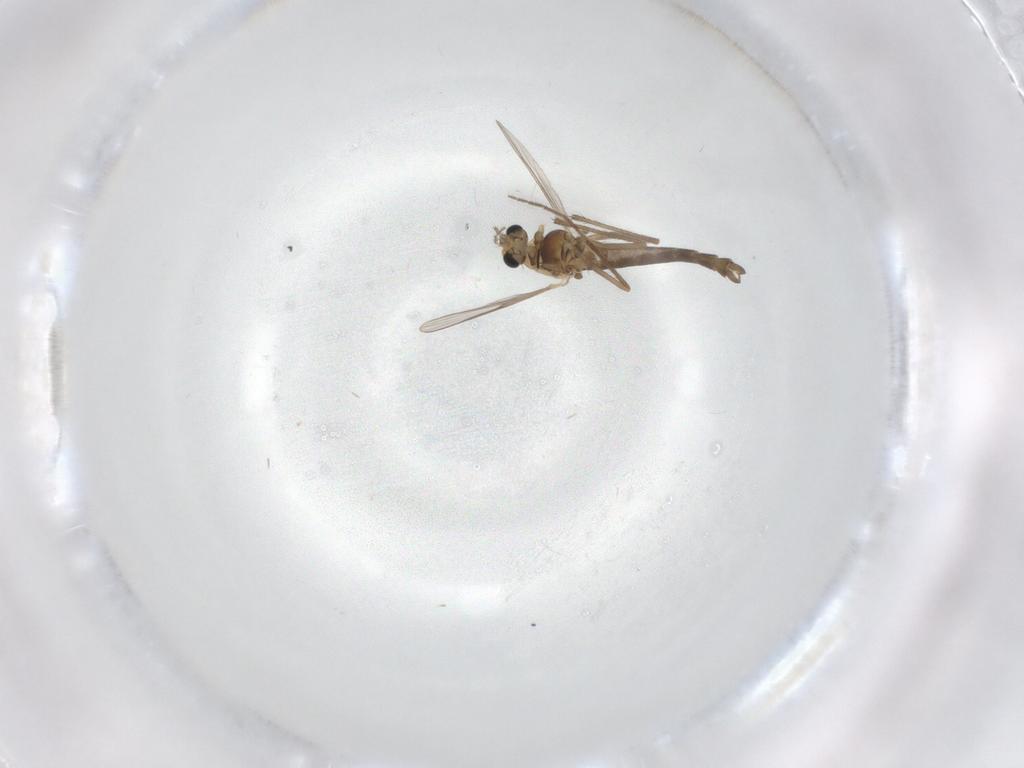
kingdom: Animalia
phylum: Arthropoda
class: Insecta
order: Diptera
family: Chironomidae
